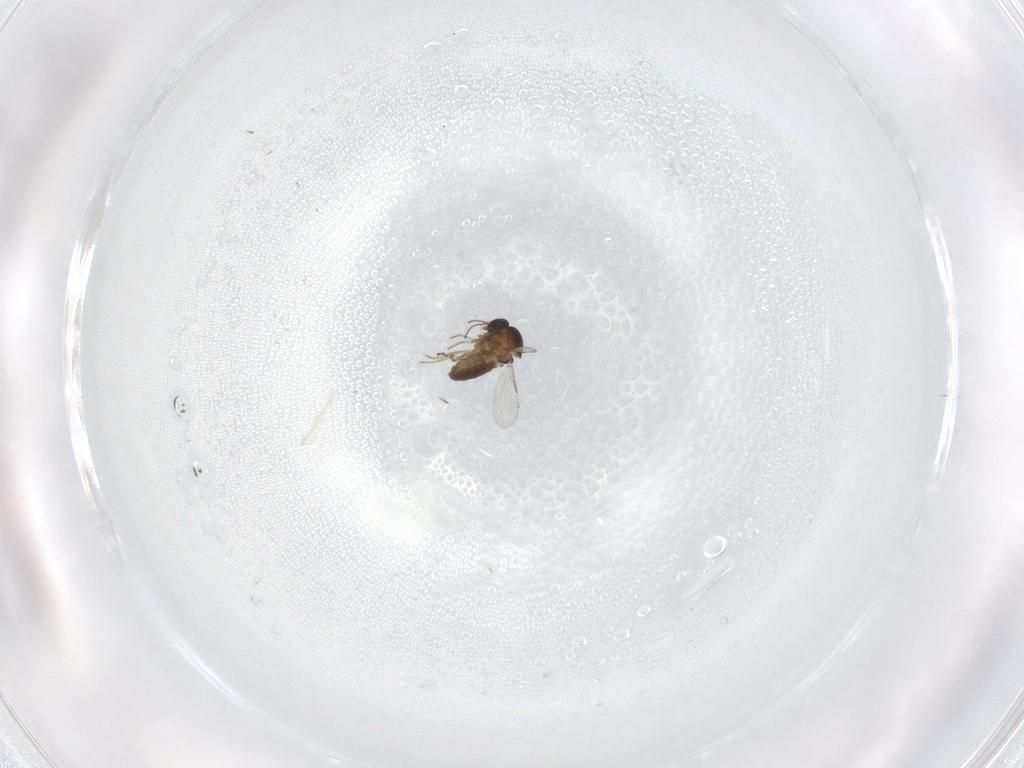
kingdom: Animalia
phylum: Arthropoda
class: Insecta
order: Diptera
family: Ceratopogonidae
